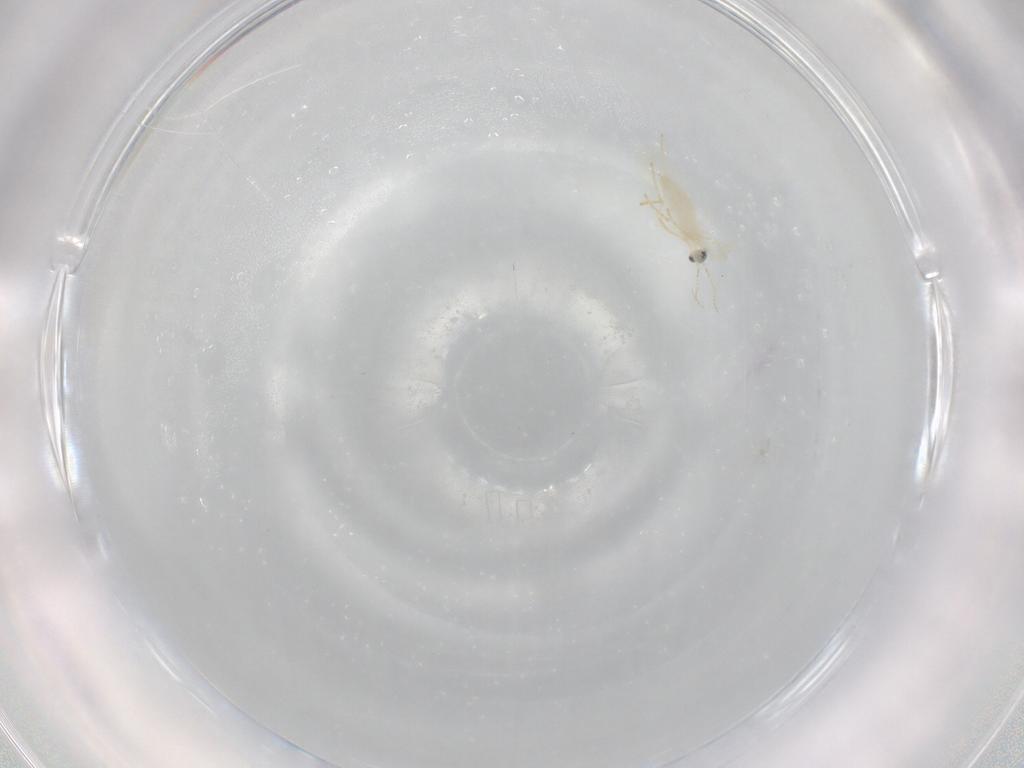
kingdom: Animalia
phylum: Arthropoda
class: Insecta
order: Diptera
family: Cecidomyiidae
